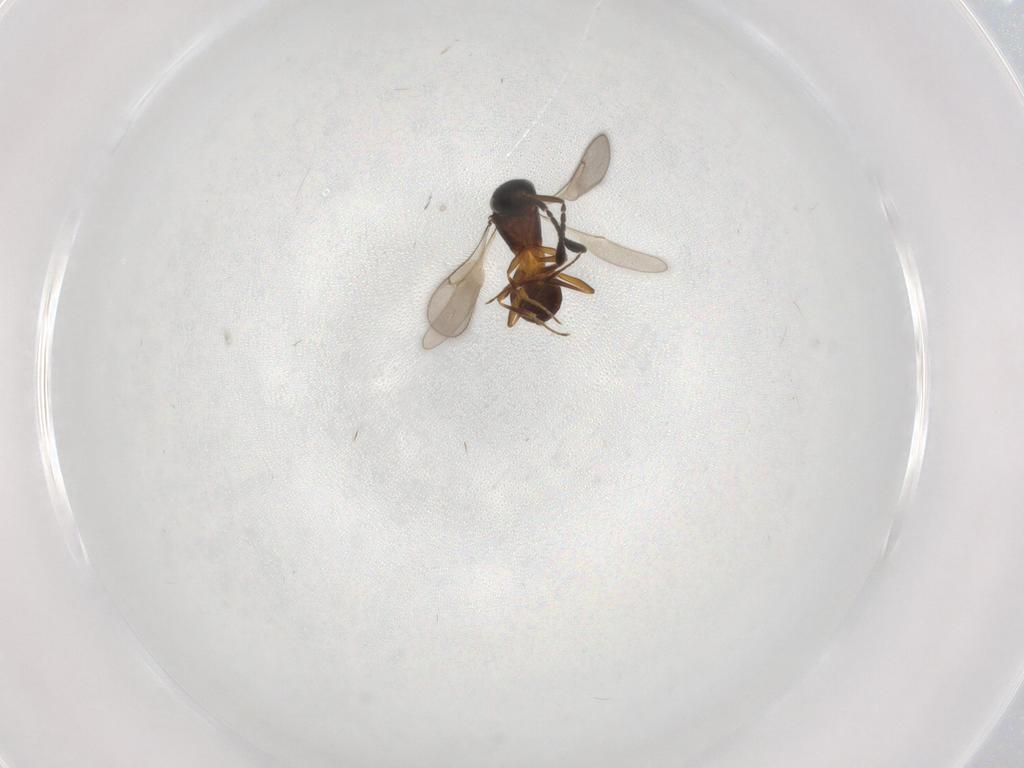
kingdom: Animalia
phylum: Arthropoda
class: Insecta
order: Hymenoptera
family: Scelionidae
